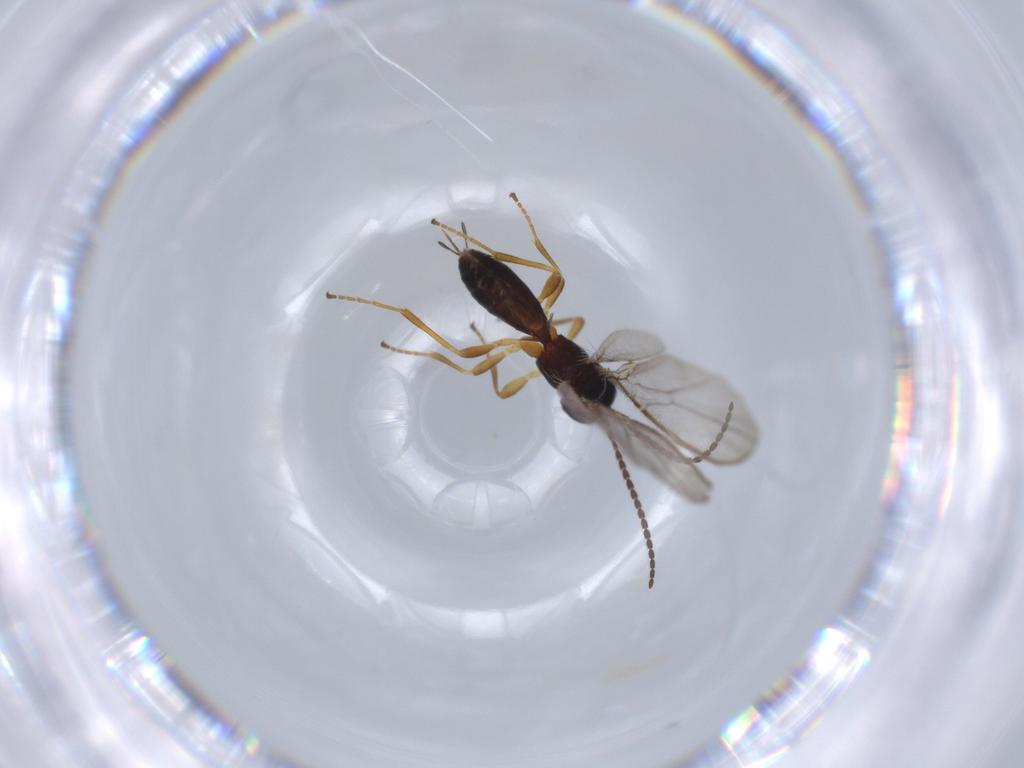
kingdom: Animalia
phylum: Arthropoda
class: Insecta
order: Hymenoptera
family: Braconidae
